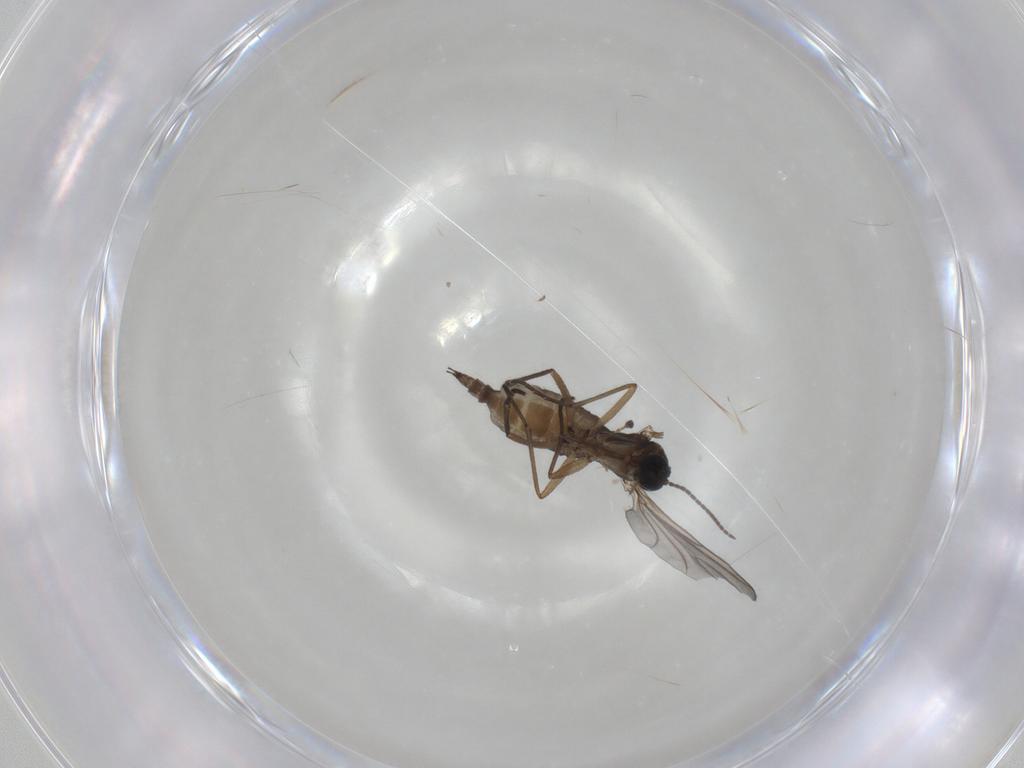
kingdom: Animalia
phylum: Arthropoda
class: Insecta
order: Diptera
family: Sciaridae
